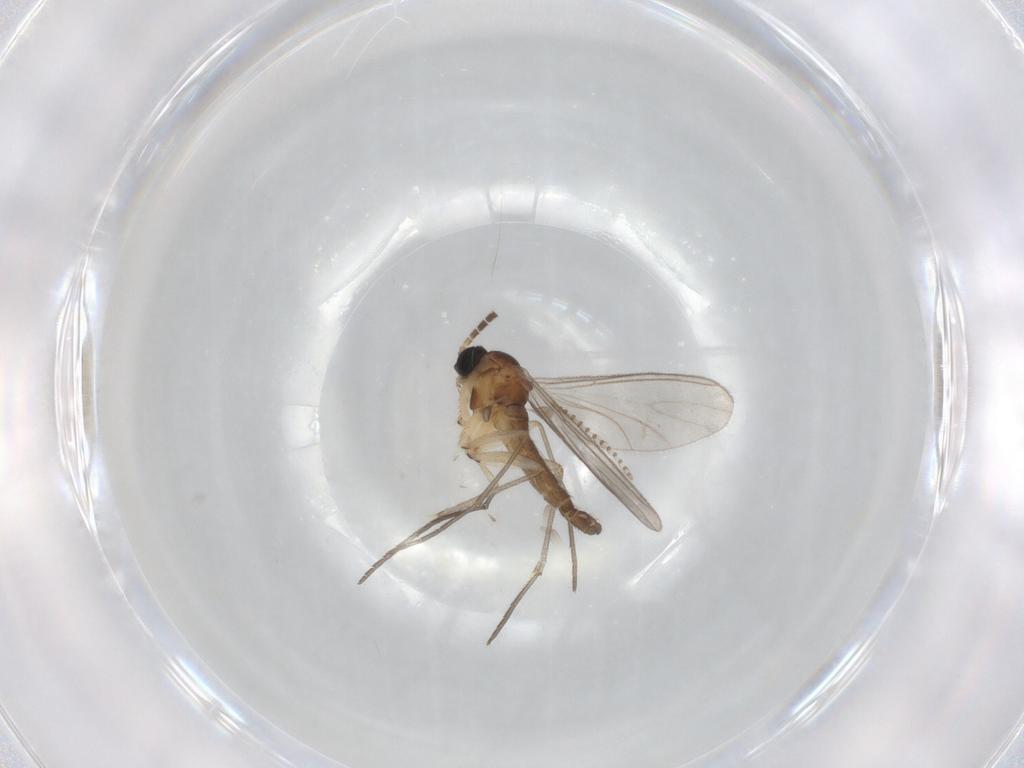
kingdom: Animalia
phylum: Arthropoda
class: Insecta
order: Diptera
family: Sciaridae
